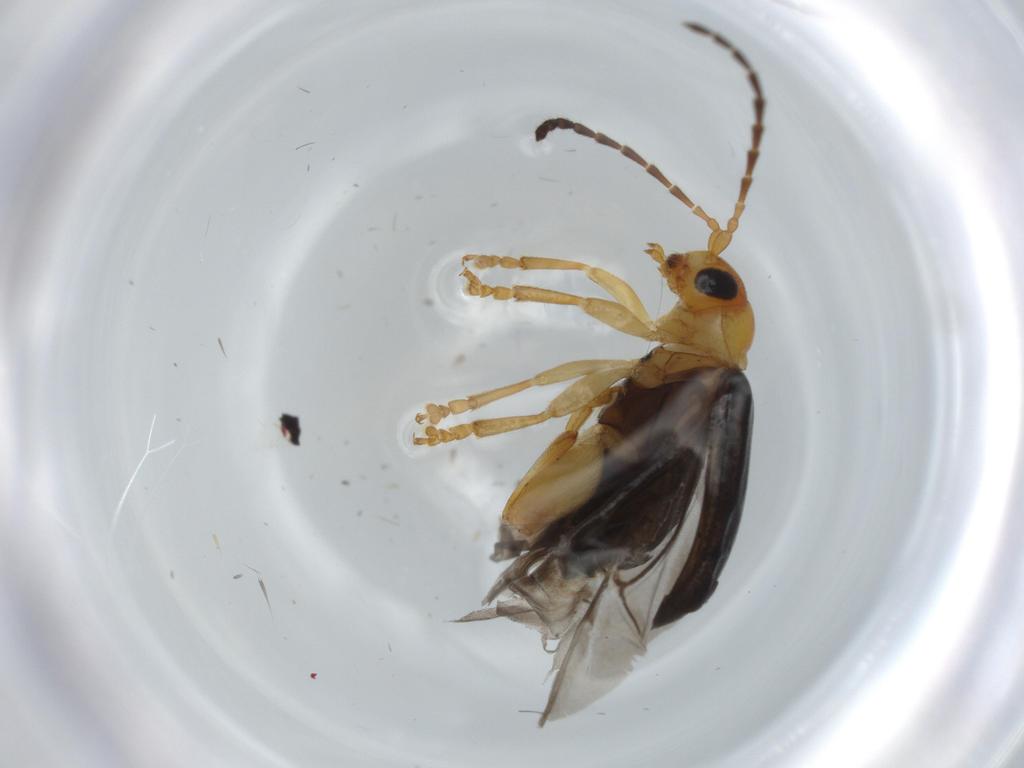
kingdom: Animalia
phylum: Arthropoda
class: Insecta
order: Coleoptera
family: Chrysomelidae
